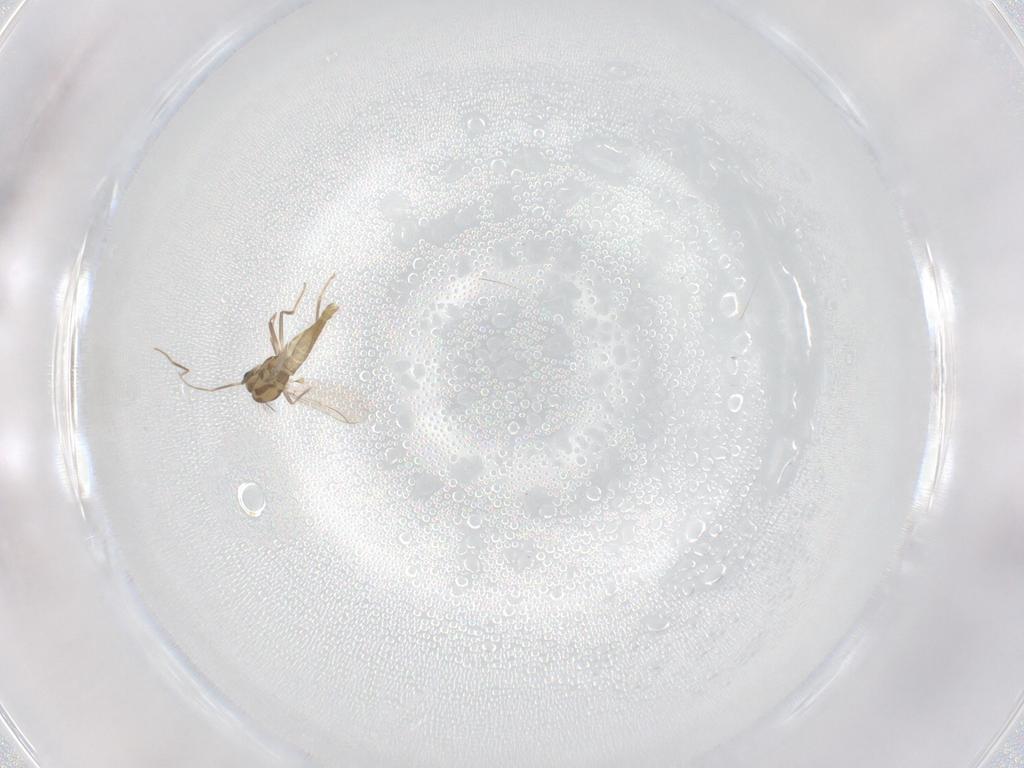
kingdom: Animalia
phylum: Arthropoda
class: Insecta
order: Diptera
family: Chironomidae
